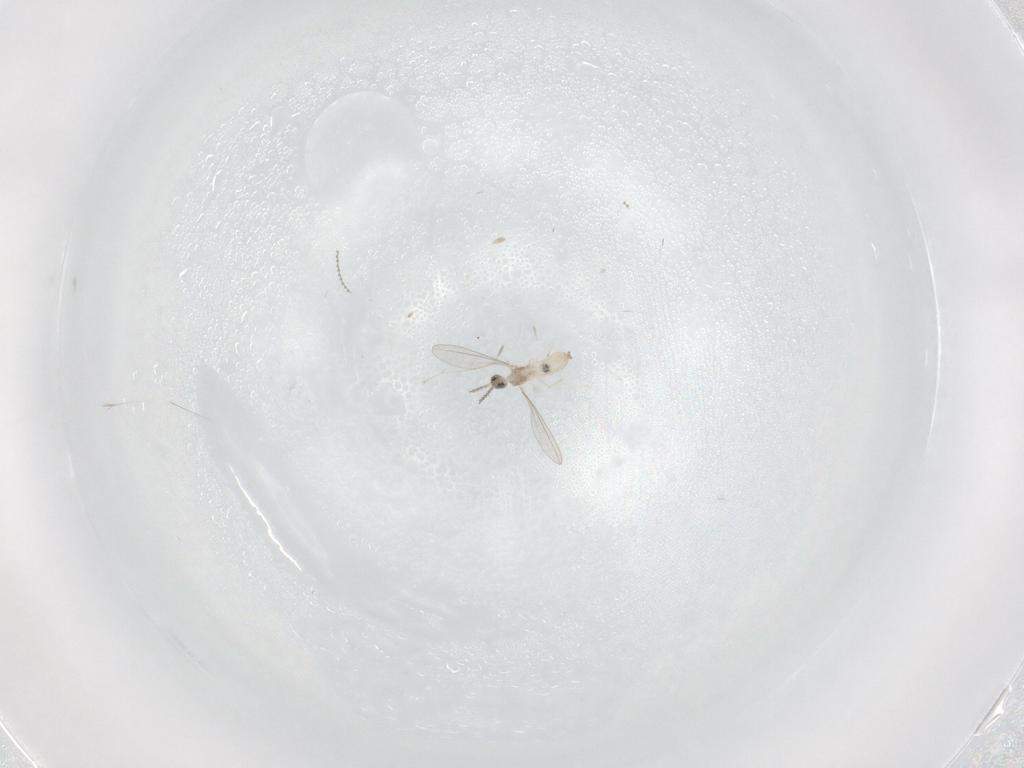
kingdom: Animalia
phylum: Arthropoda
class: Insecta
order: Diptera
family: Cecidomyiidae
